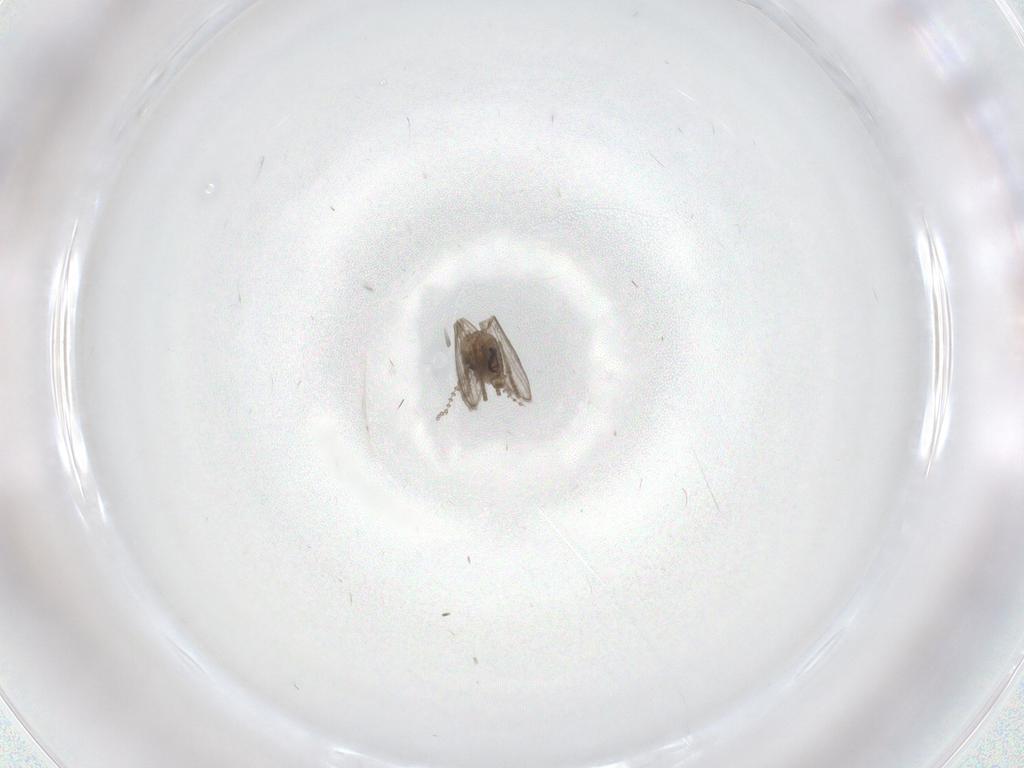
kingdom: Animalia
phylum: Arthropoda
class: Insecta
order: Diptera
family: Psychodidae
